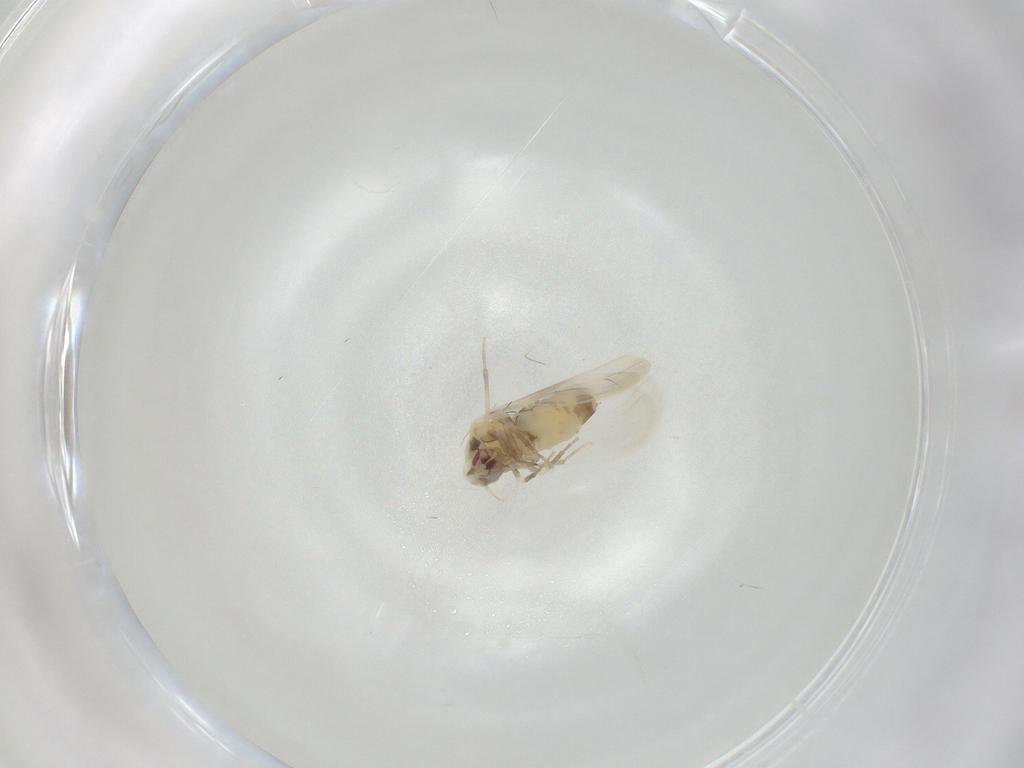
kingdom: Animalia
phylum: Arthropoda
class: Insecta
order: Hemiptera
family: Aleyrodidae
